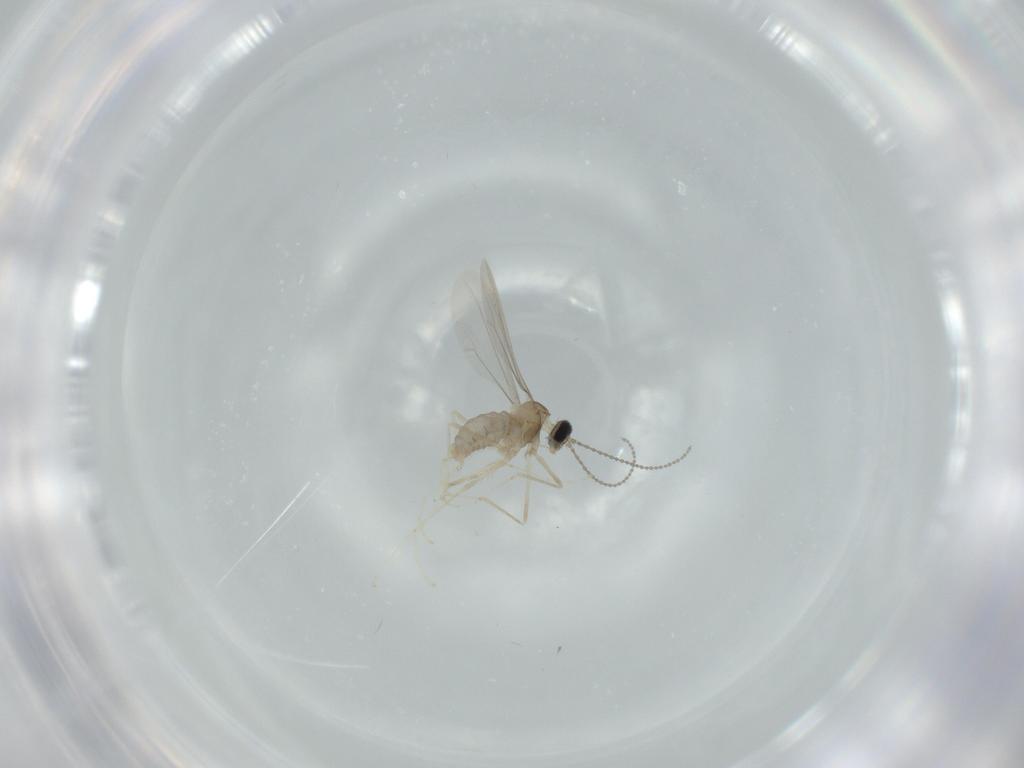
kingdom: Animalia
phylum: Arthropoda
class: Insecta
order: Diptera
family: Cecidomyiidae
